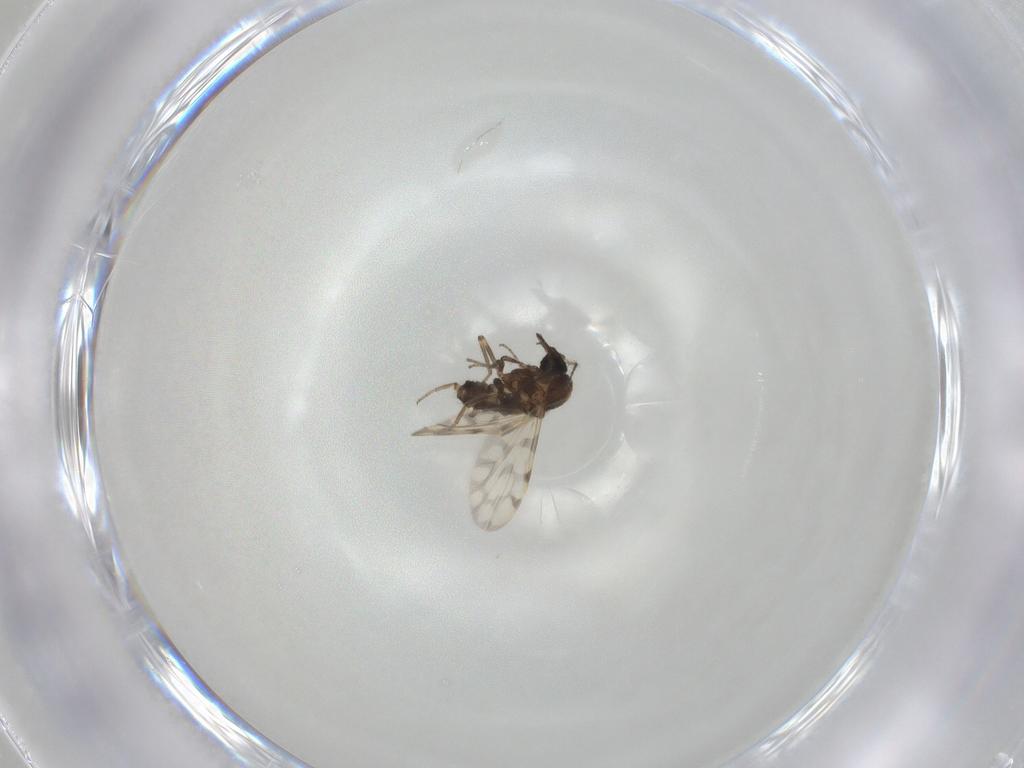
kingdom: Animalia
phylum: Arthropoda
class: Insecta
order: Diptera
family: Ceratopogonidae
